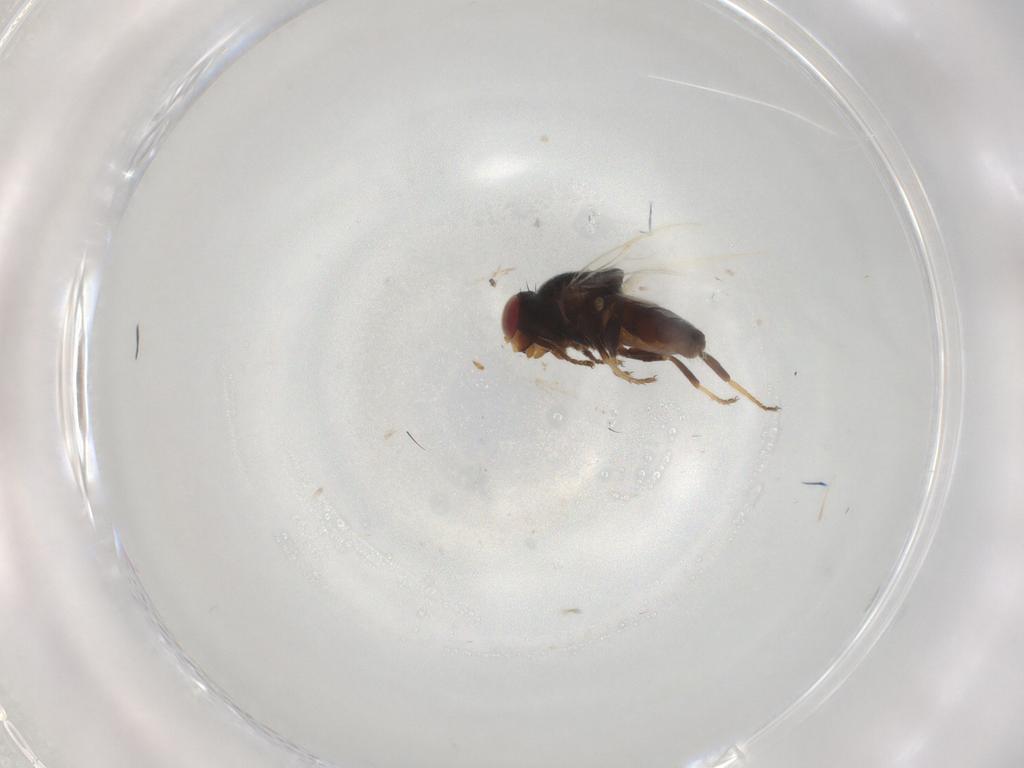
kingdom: Animalia
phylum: Arthropoda
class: Insecta
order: Diptera
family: Chloropidae
